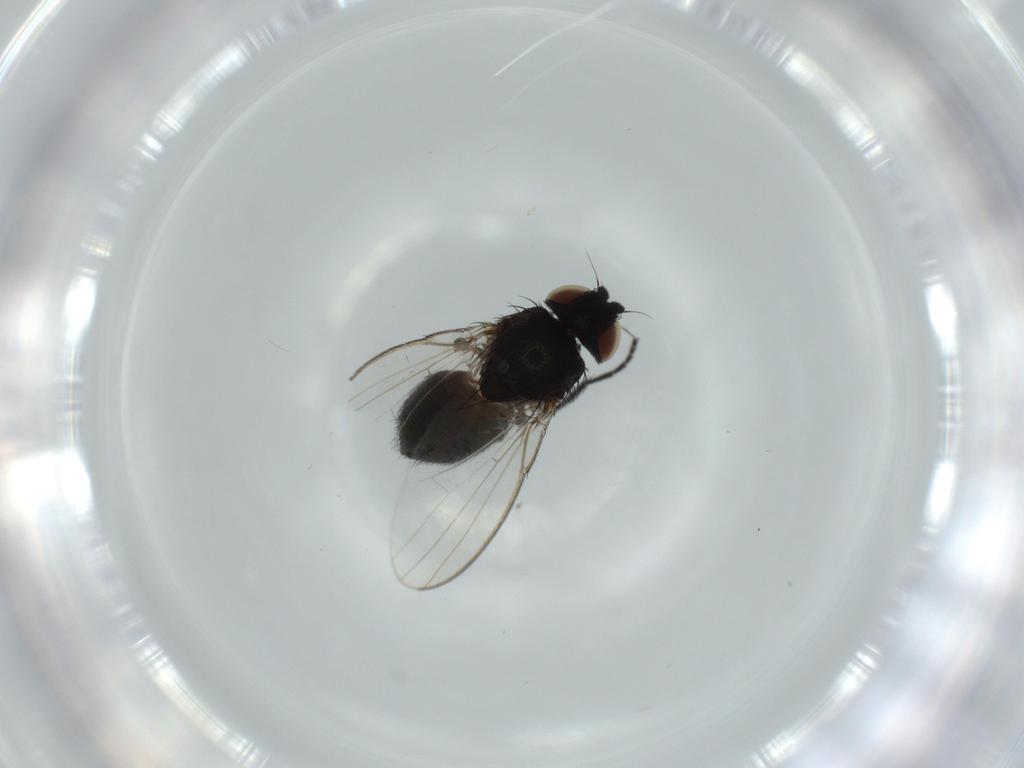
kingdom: Animalia
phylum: Arthropoda
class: Insecta
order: Diptera
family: Milichiidae
